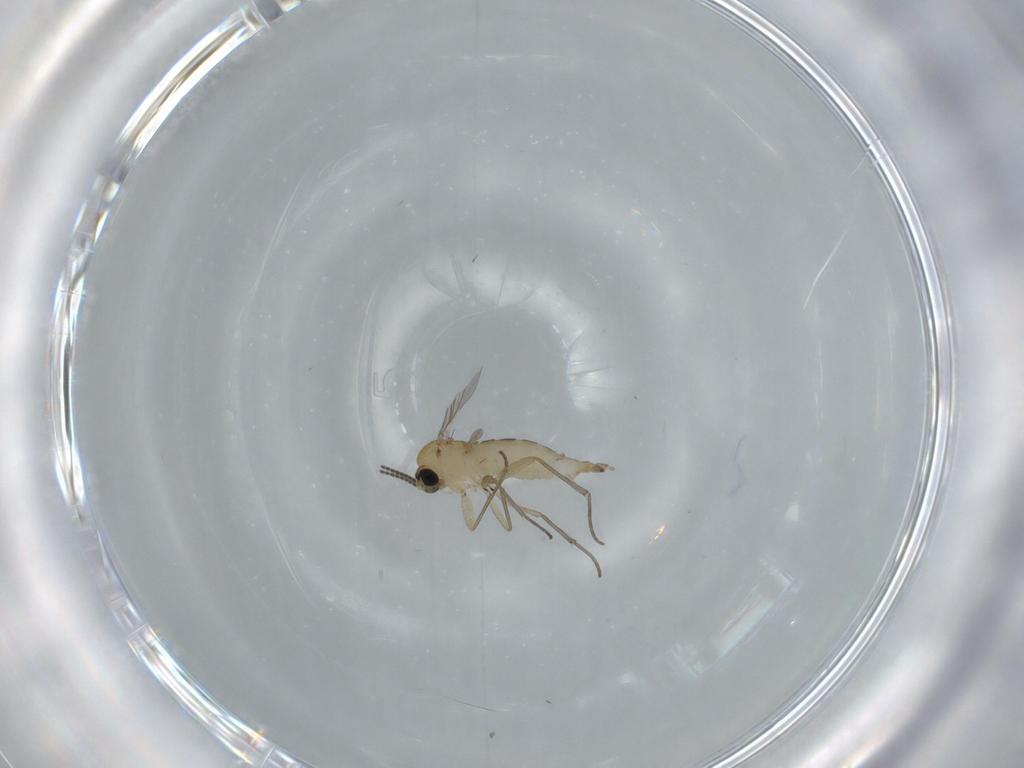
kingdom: Animalia
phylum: Arthropoda
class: Insecta
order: Diptera
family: Sciaridae
